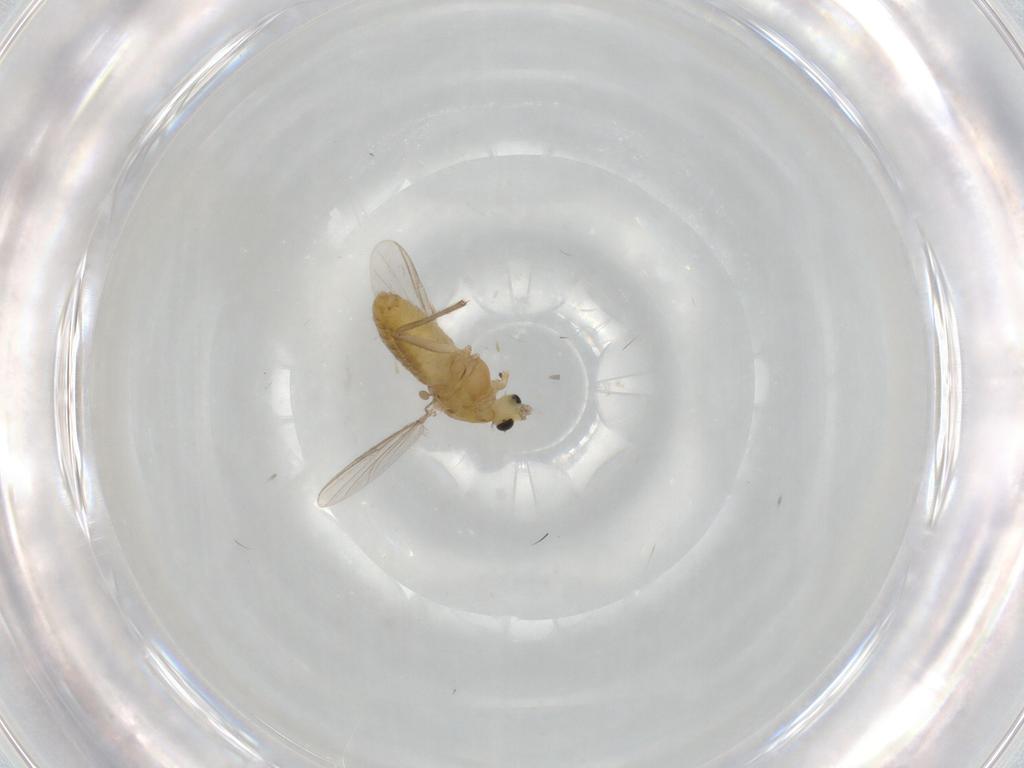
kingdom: Animalia
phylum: Arthropoda
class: Insecta
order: Diptera
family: Chironomidae
